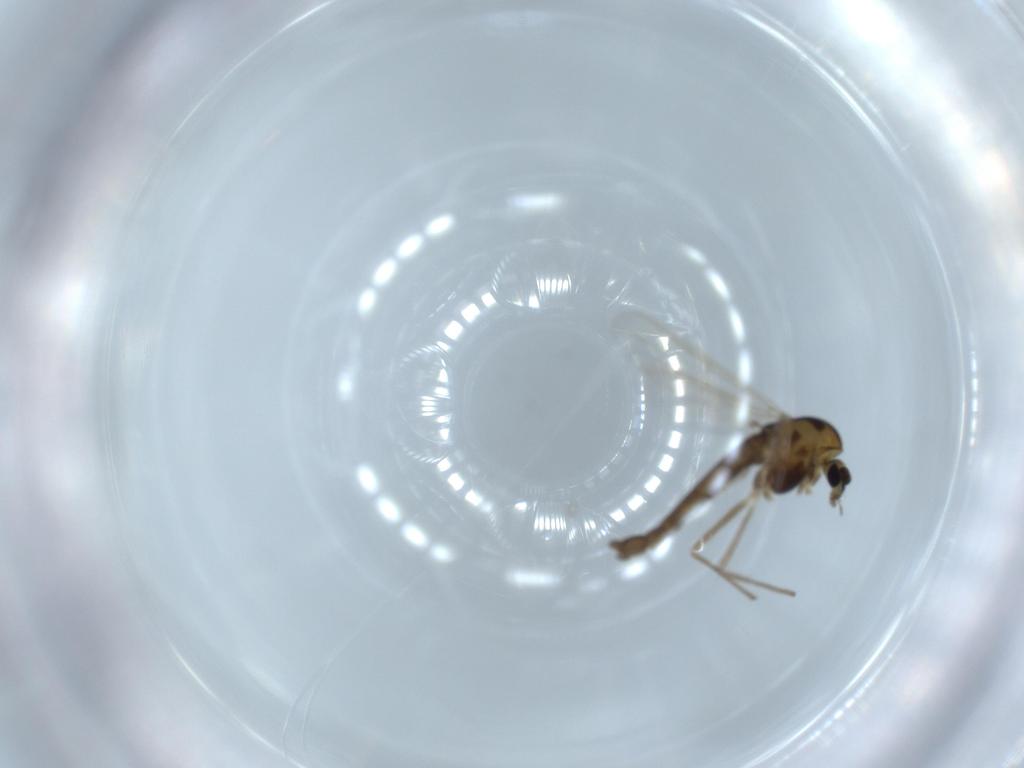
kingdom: Animalia
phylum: Arthropoda
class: Insecta
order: Diptera
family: Chironomidae
